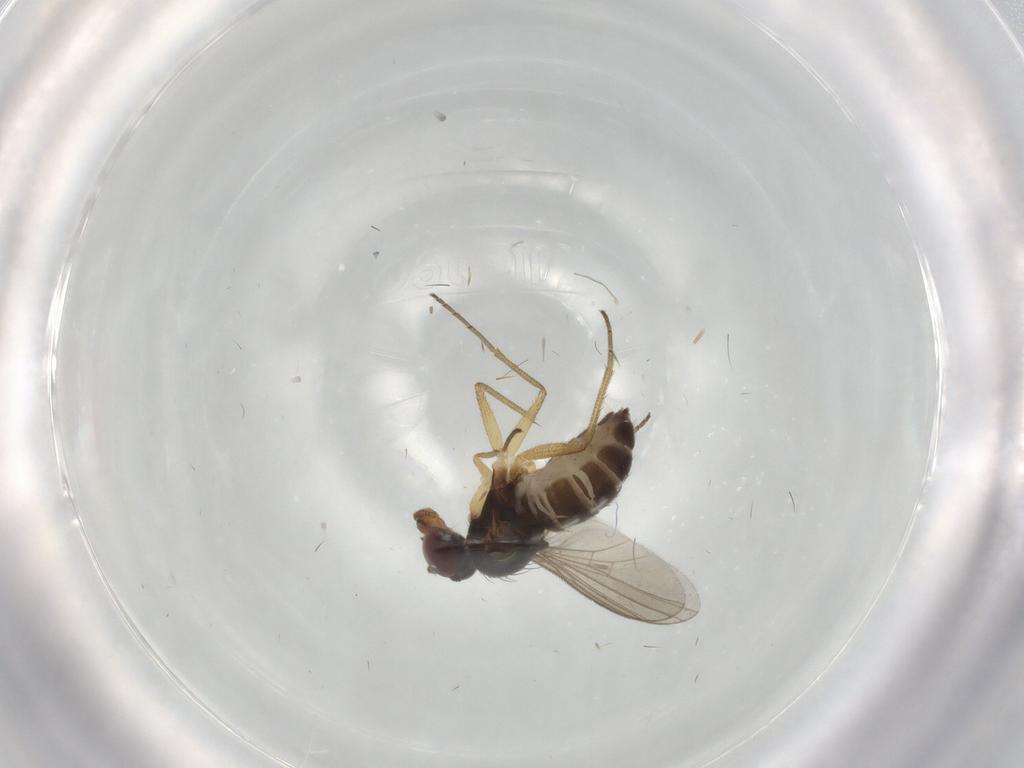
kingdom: Animalia
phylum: Arthropoda
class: Insecta
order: Diptera
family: Dolichopodidae
